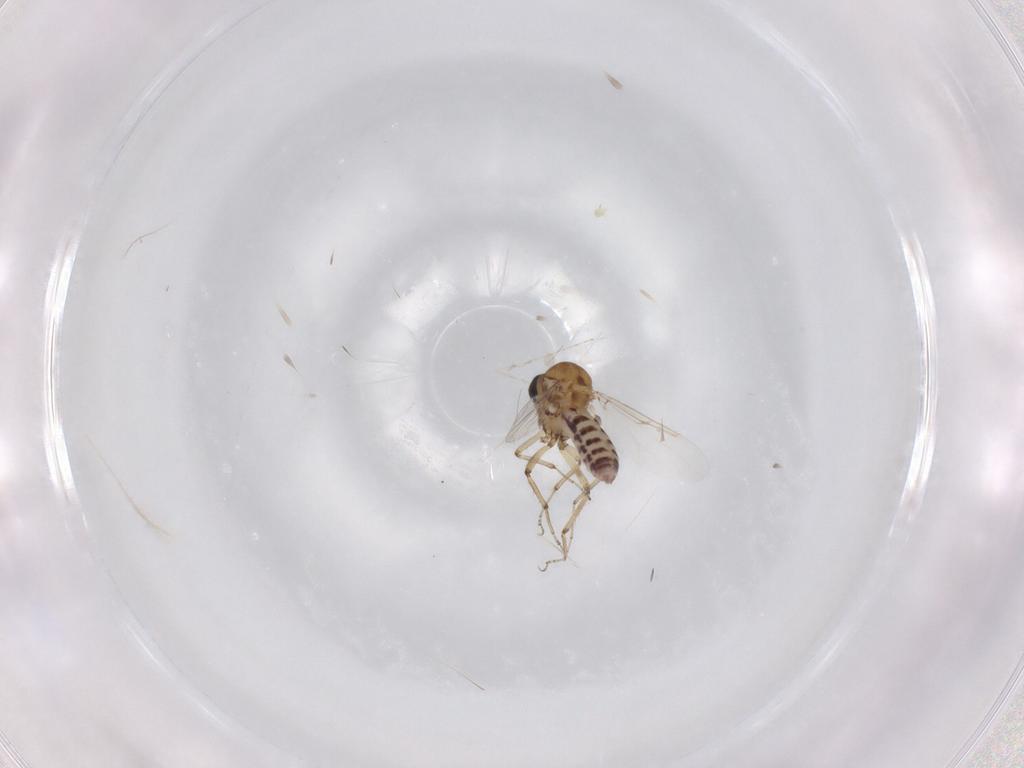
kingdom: Animalia
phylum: Arthropoda
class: Insecta
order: Diptera
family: Ceratopogonidae
